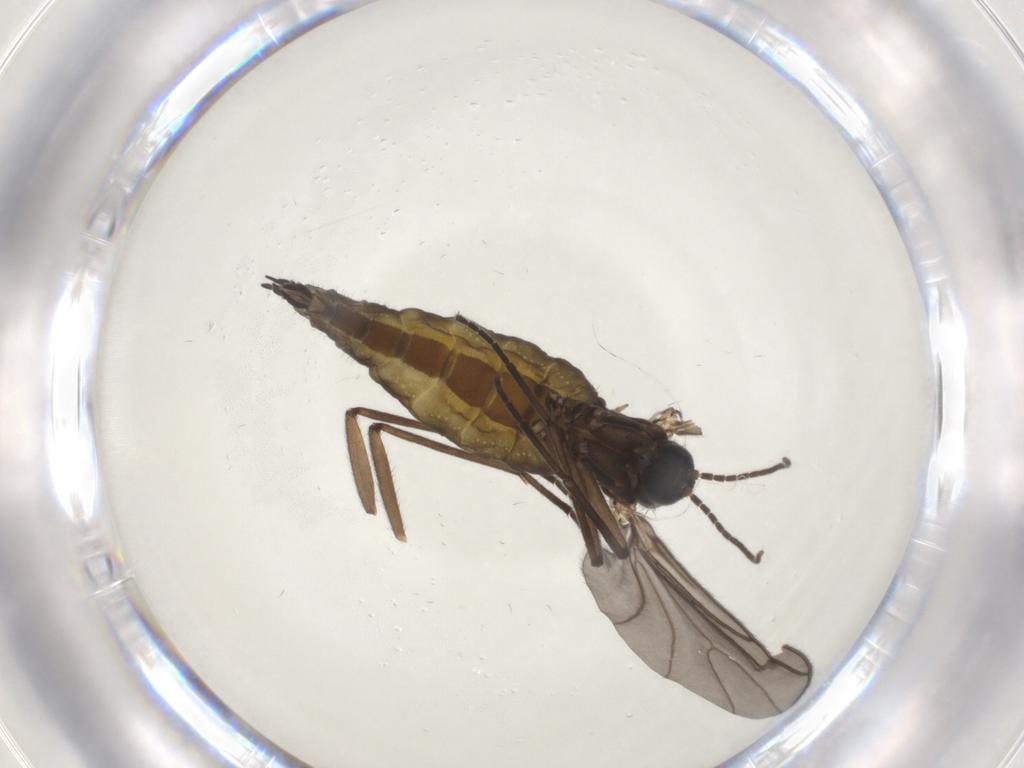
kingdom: Animalia
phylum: Arthropoda
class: Insecta
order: Diptera
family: Sciaridae
